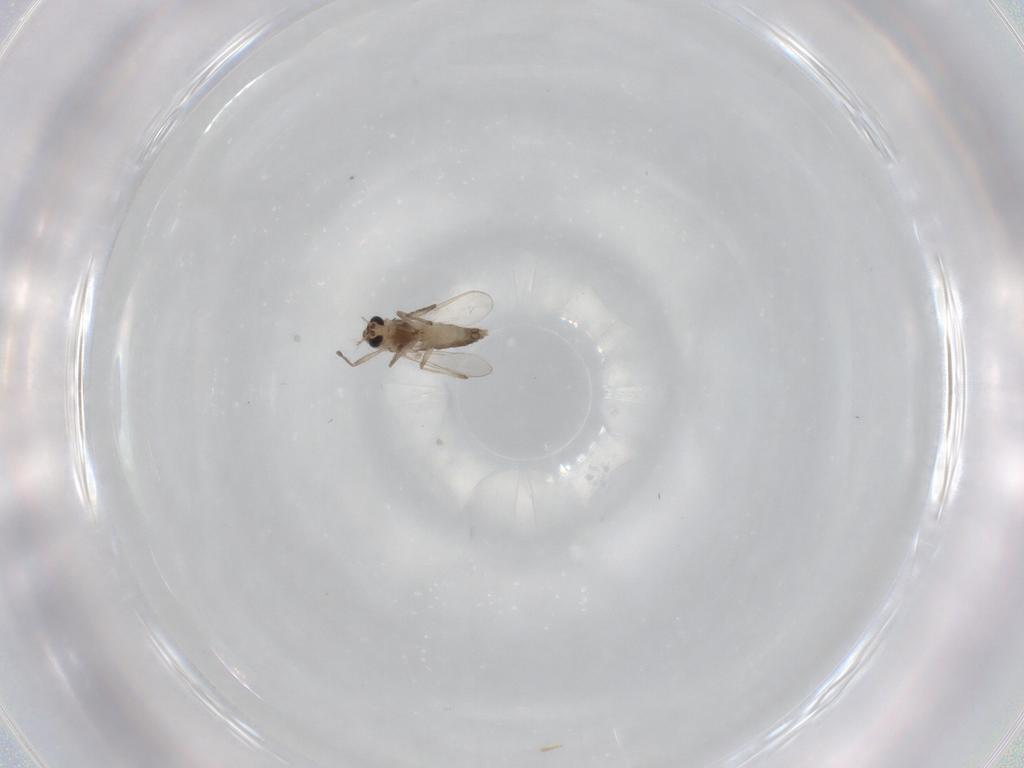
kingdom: Animalia
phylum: Arthropoda
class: Insecta
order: Diptera
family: Chironomidae
